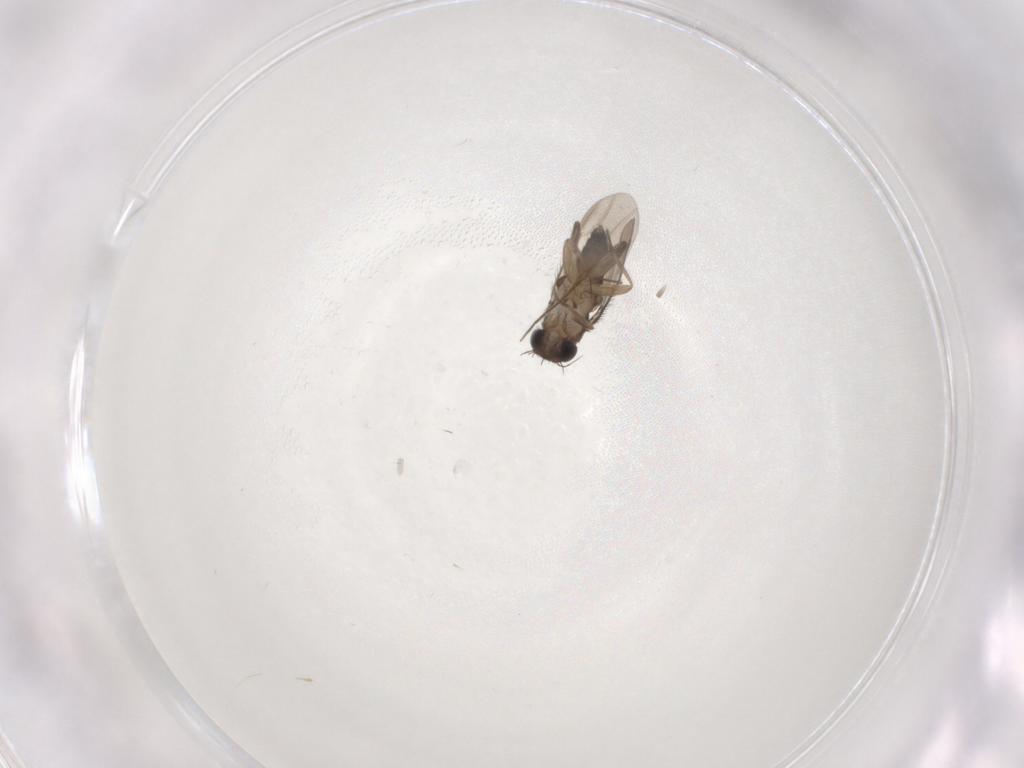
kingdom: Animalia
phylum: Arthropoda
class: Insecta
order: Diptera
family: Phoridae
